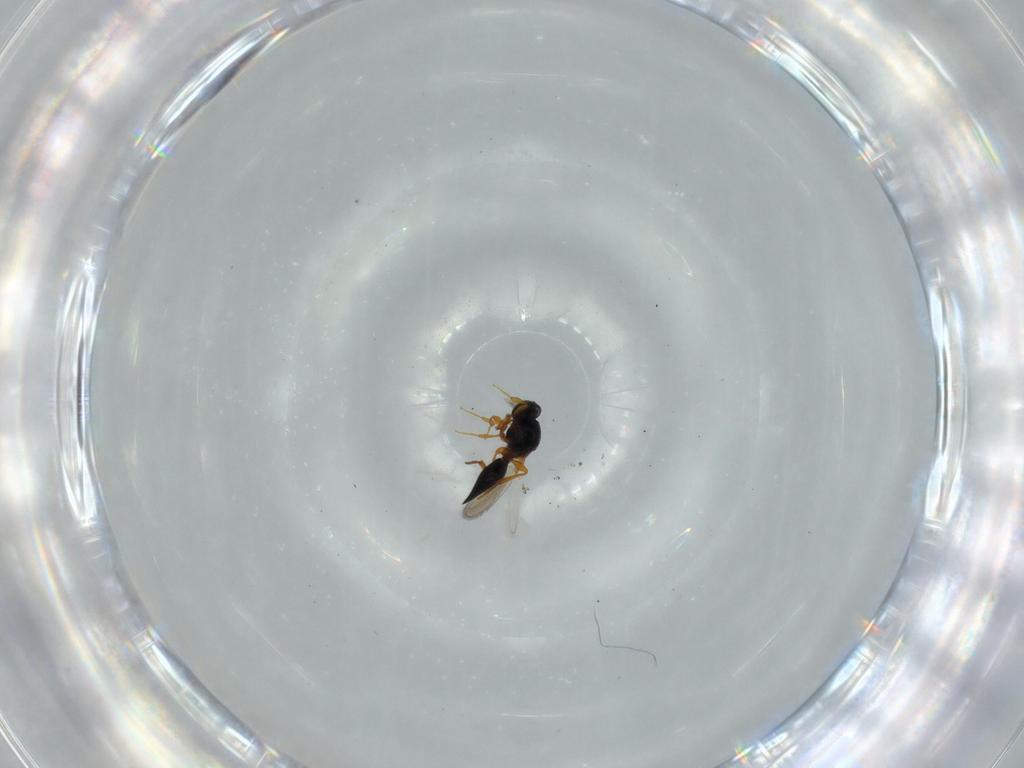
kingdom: Animalia
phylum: Arthropoda
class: Insecta
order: Hymenoptera
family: Platygastridae
